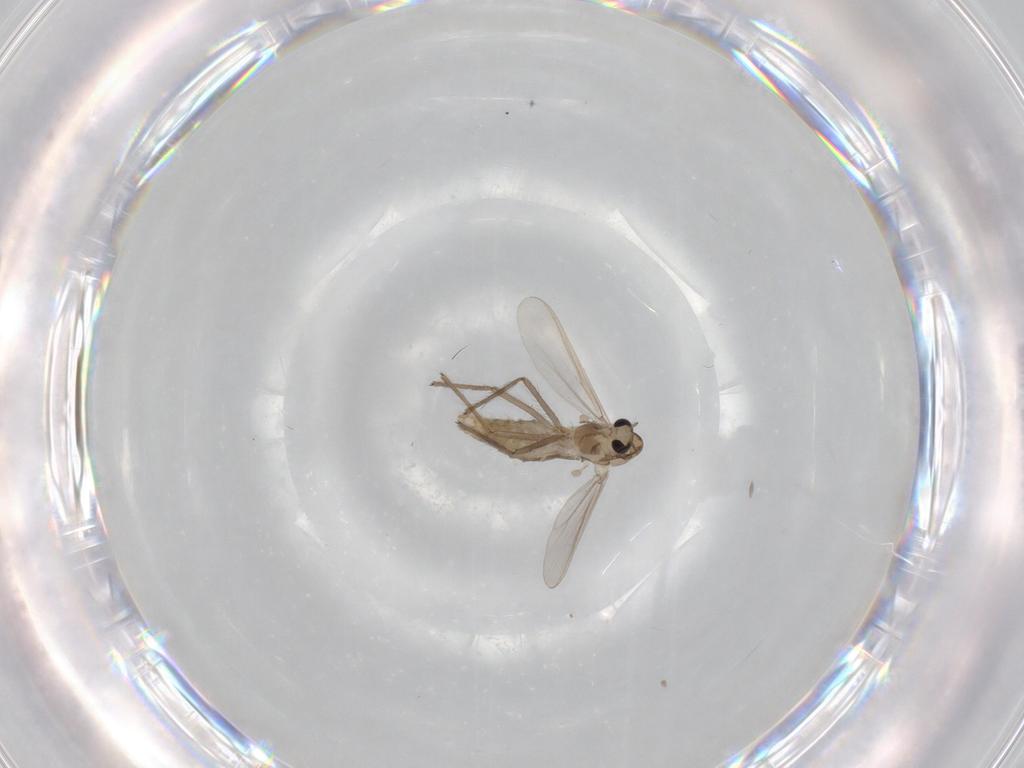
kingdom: Animalia
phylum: Arthropoda
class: Insecta
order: Diptera
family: Chironomidae
